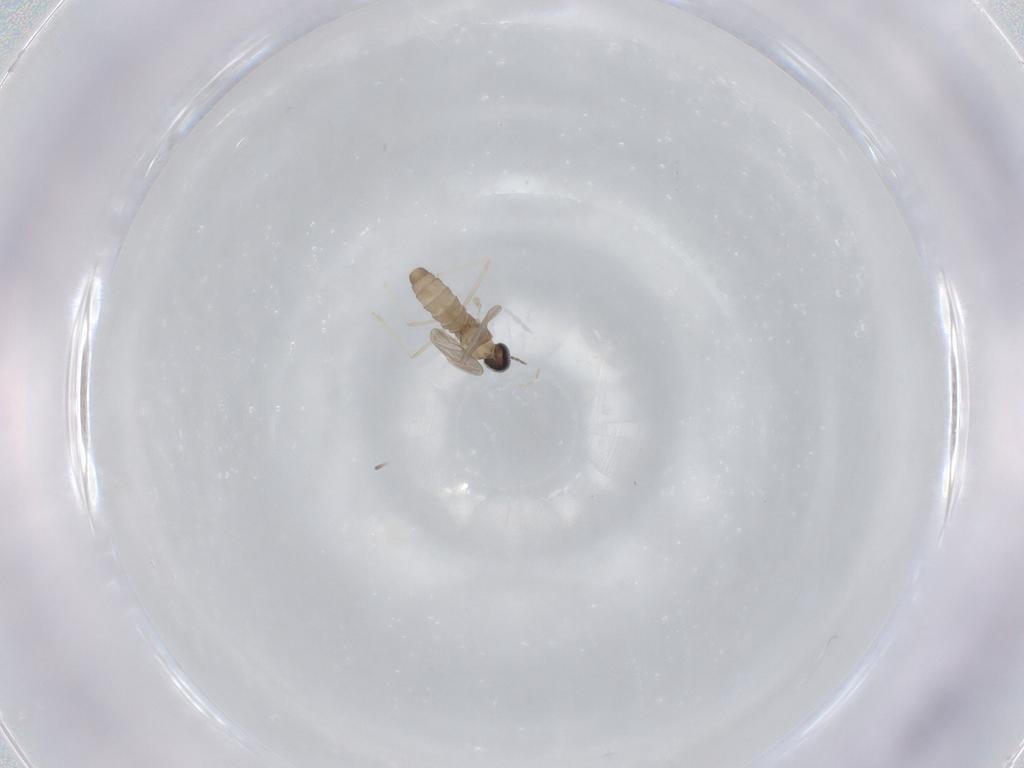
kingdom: Animalia
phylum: Arthropoda
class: Insecta
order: Diptera
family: Cecidomyiidae
